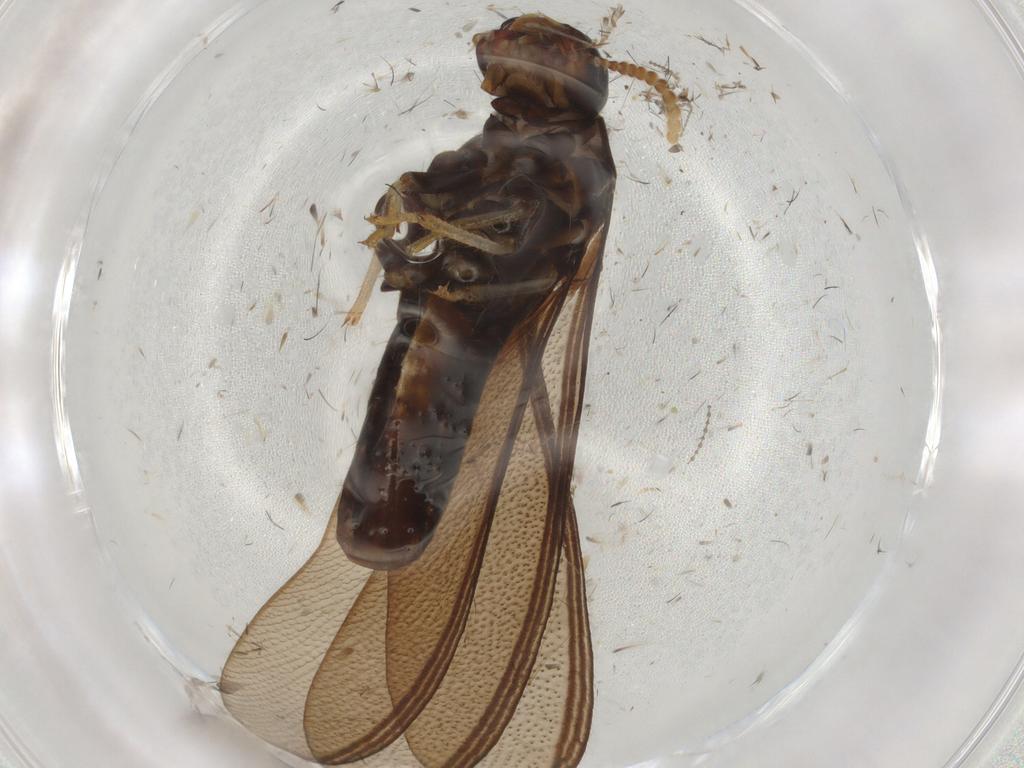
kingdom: Animalia
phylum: Arthropoda
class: Insecta
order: Blattodea
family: Kalotermitidae
